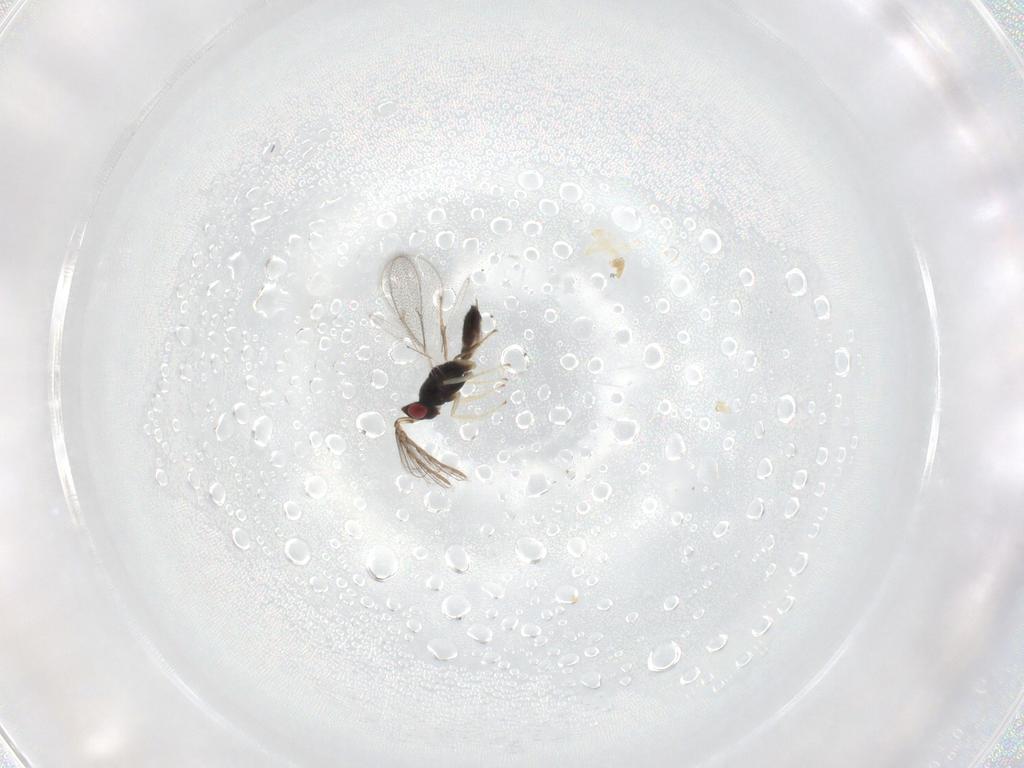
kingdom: Animalia
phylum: Arthropoda
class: Insecta
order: Hymenoptera
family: Eulophidae
